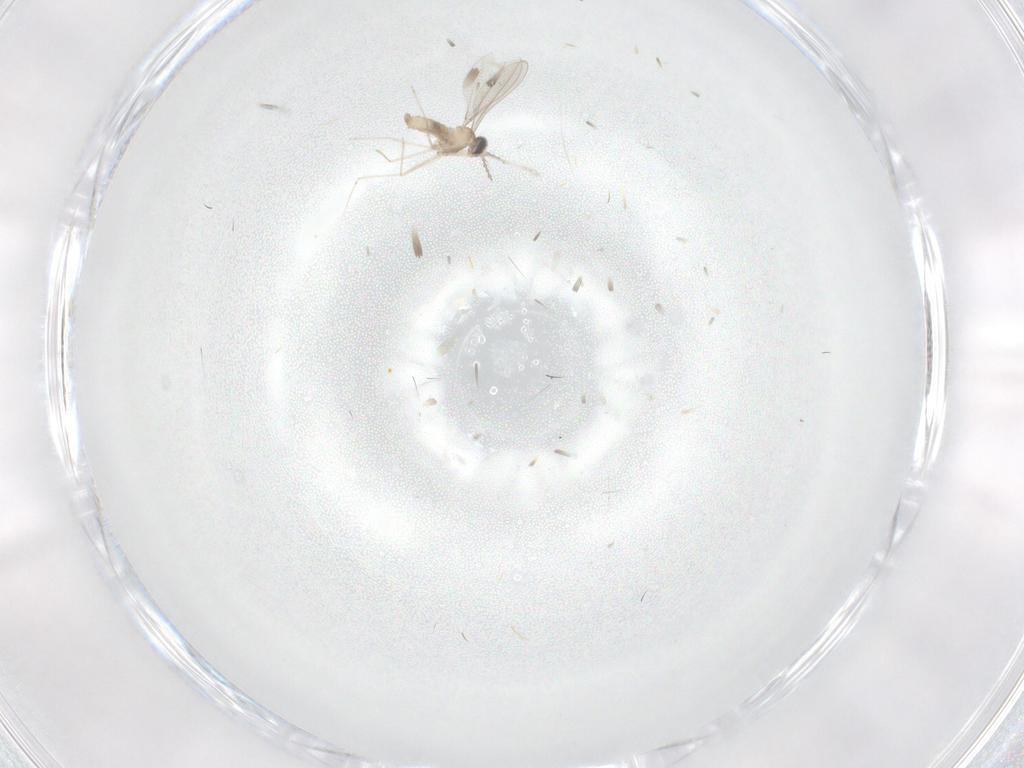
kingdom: Animalia
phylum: Arthropoda
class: Insecta
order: Diptera
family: Cecidomyiidae
